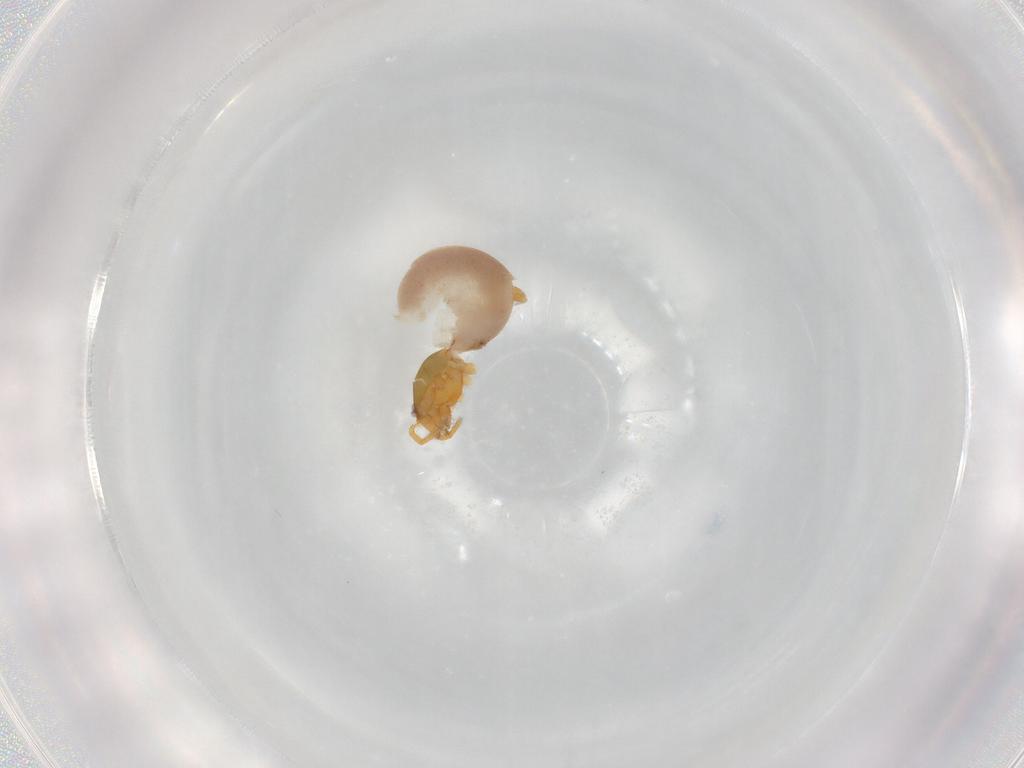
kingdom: Animalia
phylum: Arthropoda
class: Arachnida
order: Araneae
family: Oonopidae
